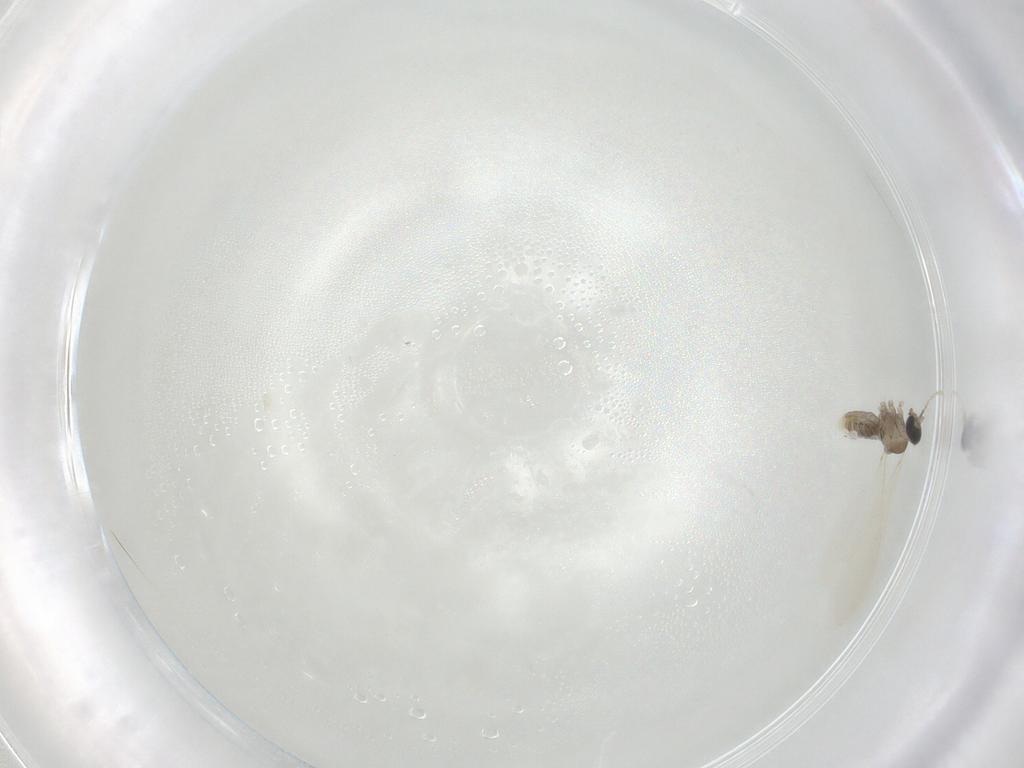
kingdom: Animalia
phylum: Arthropoda
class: Insecta
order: Diptera
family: Cecidomyiidae
